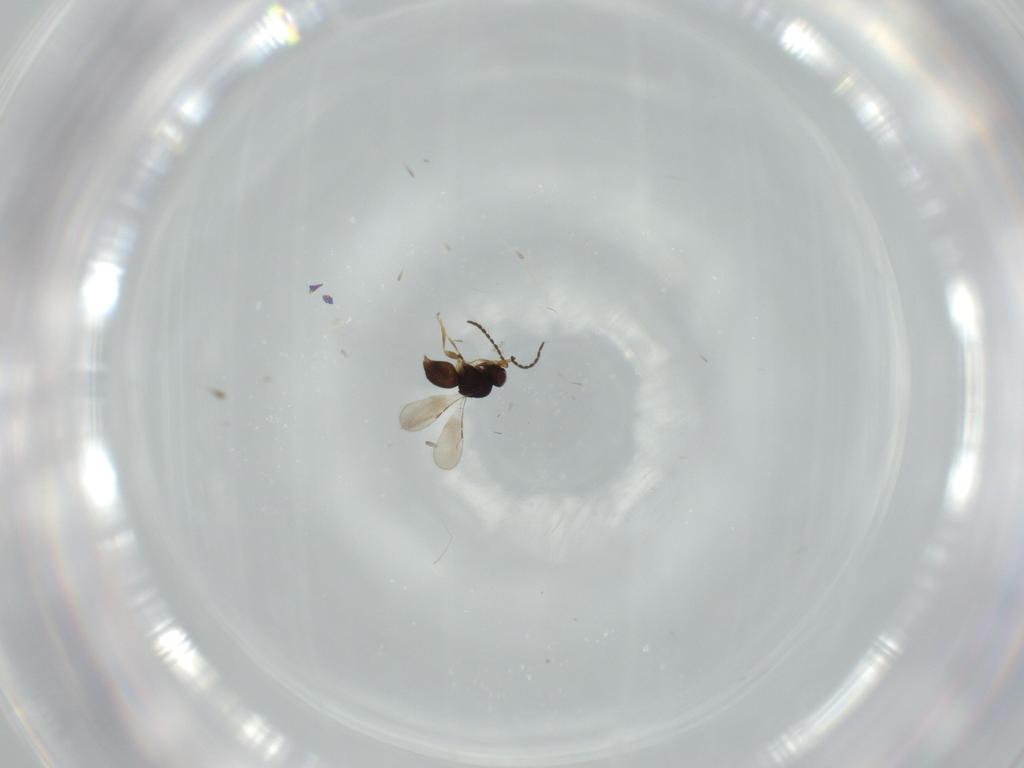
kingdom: Animalia
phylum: Arthropoda
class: Insecta
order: Hymenoptera
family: Ceraphronidae
